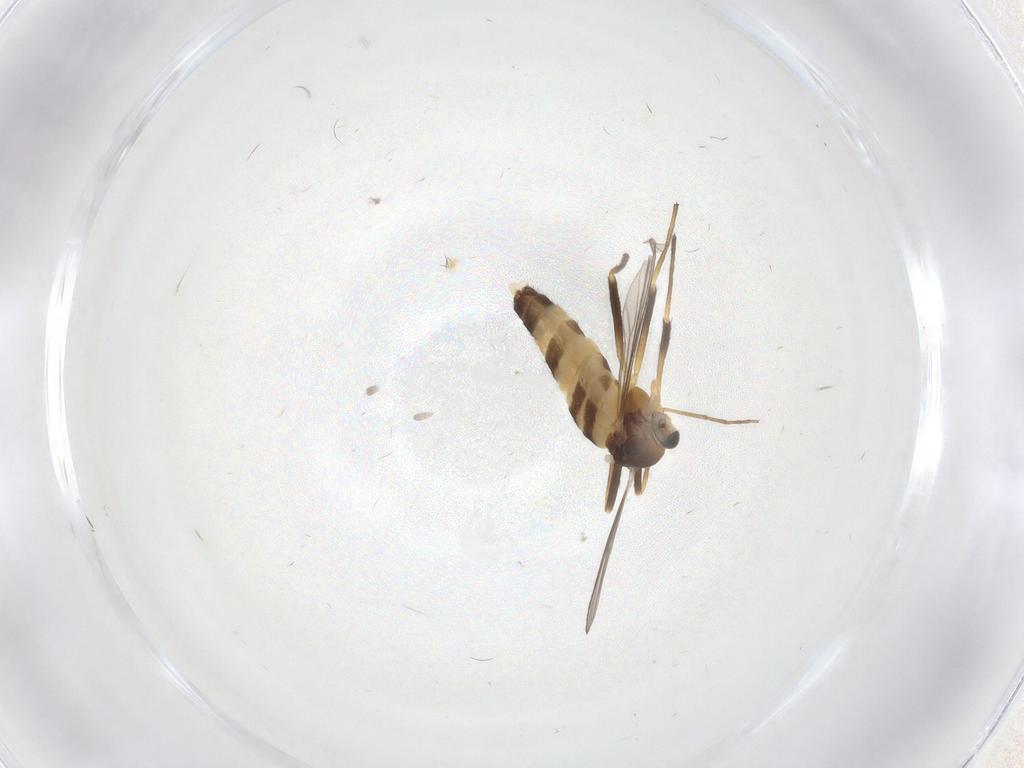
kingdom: Animalia
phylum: Arthropoda
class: Insecta
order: Diptera
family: Chironomidae
